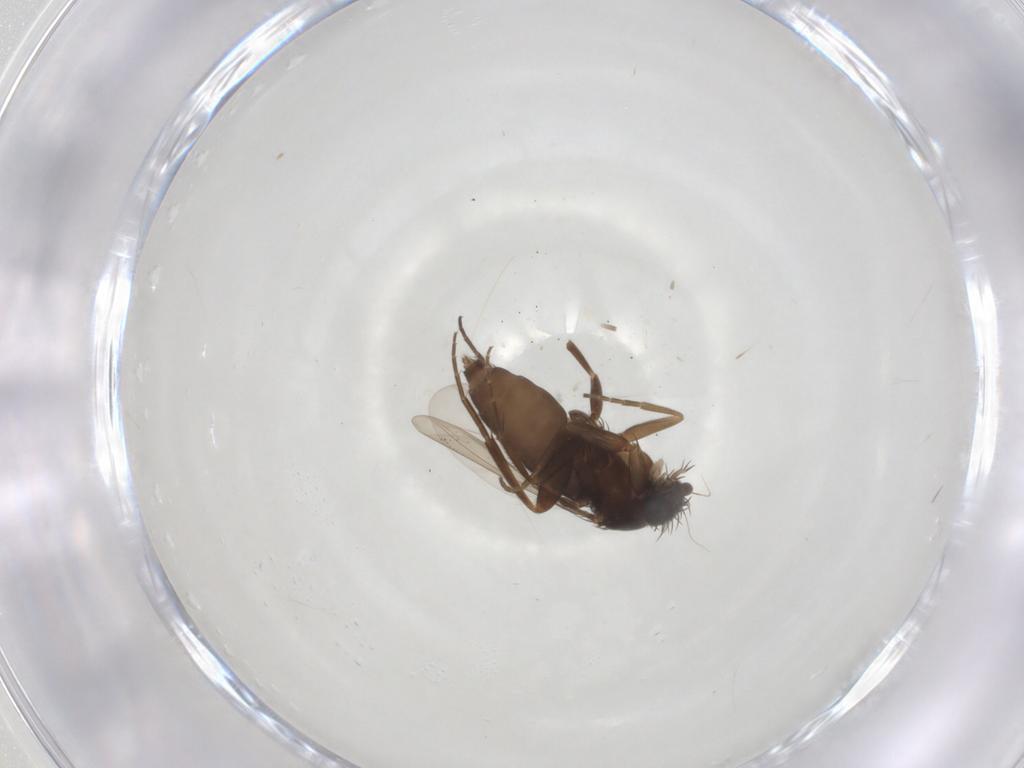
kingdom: Animalia
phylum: Arthropoda
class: Insecta
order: Diptera
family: Phoridae
